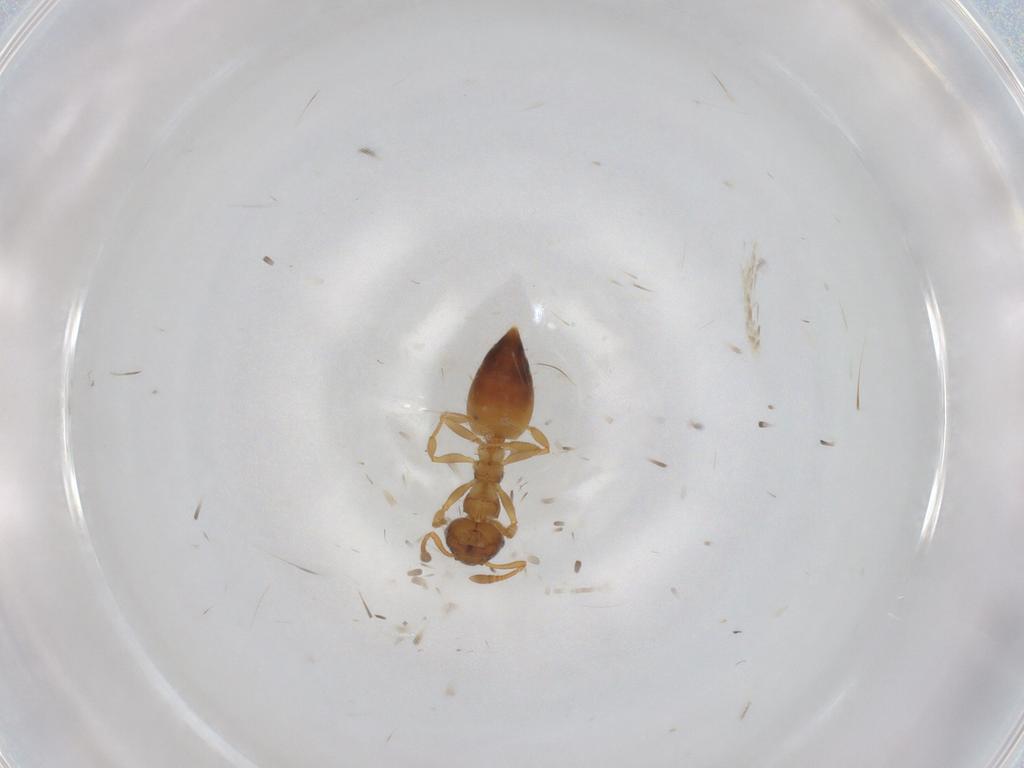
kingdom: Animalia
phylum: Arthropoda
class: Insecta
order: Hymenoptera
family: Formicidae
